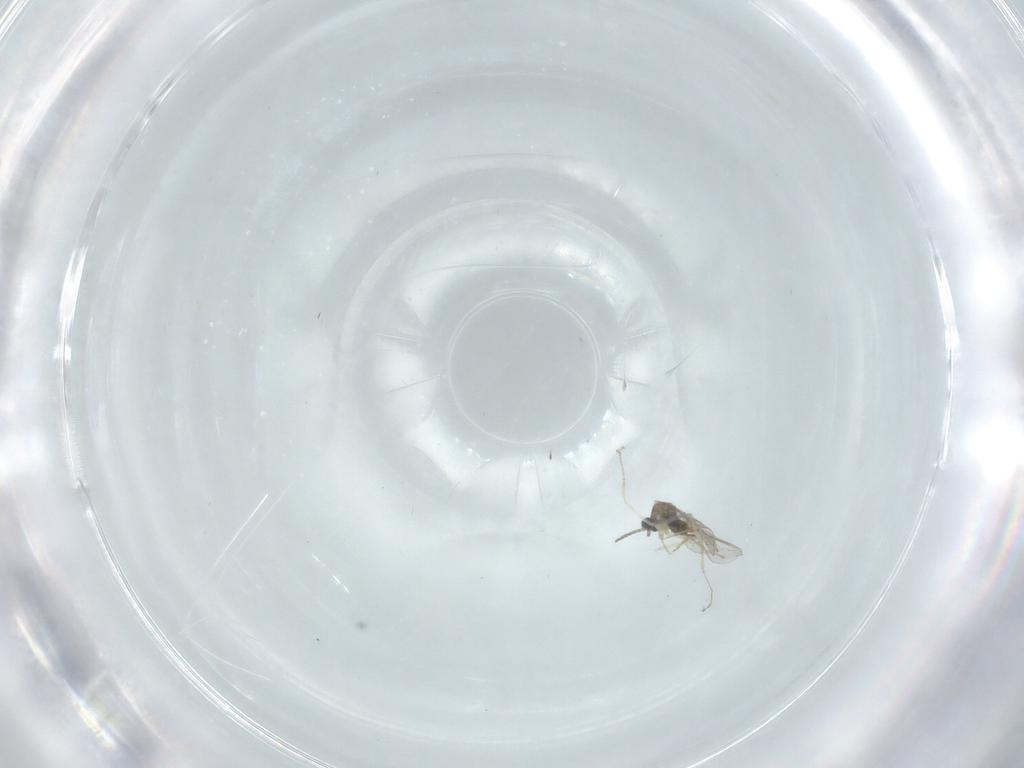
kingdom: Animalia
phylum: Arthropoda
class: Insecta
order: Diptera
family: Cecidomyiidae
